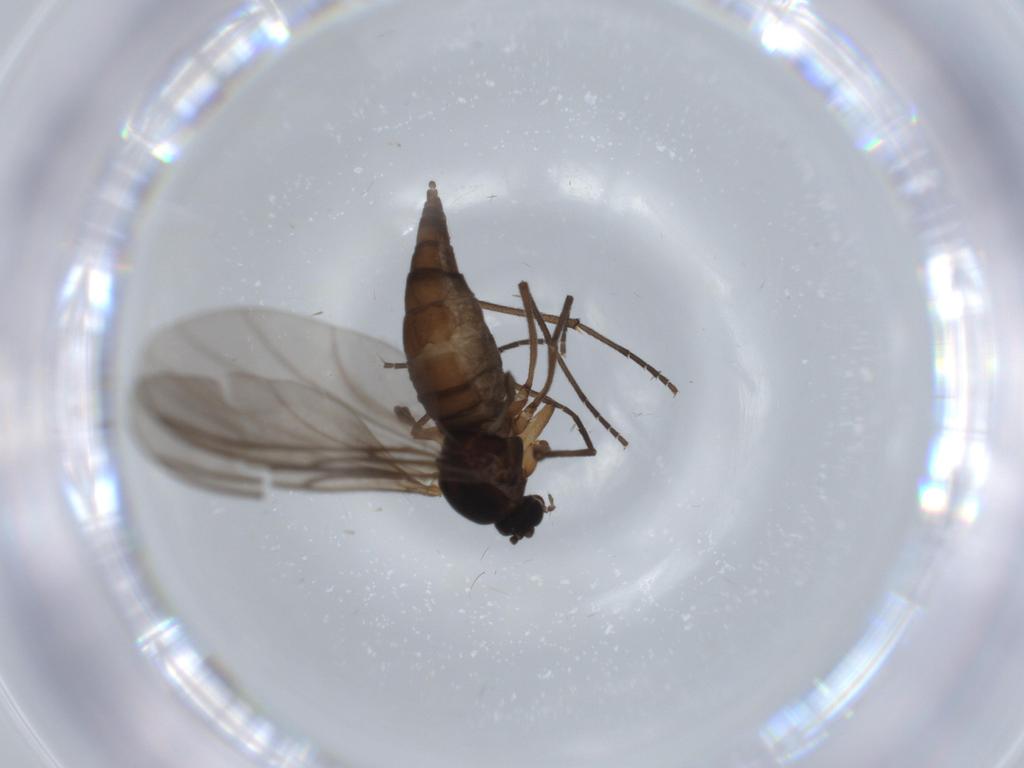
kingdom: Animalia
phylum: Arthropoda
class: Insecta
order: Diptera
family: Sciaridae
